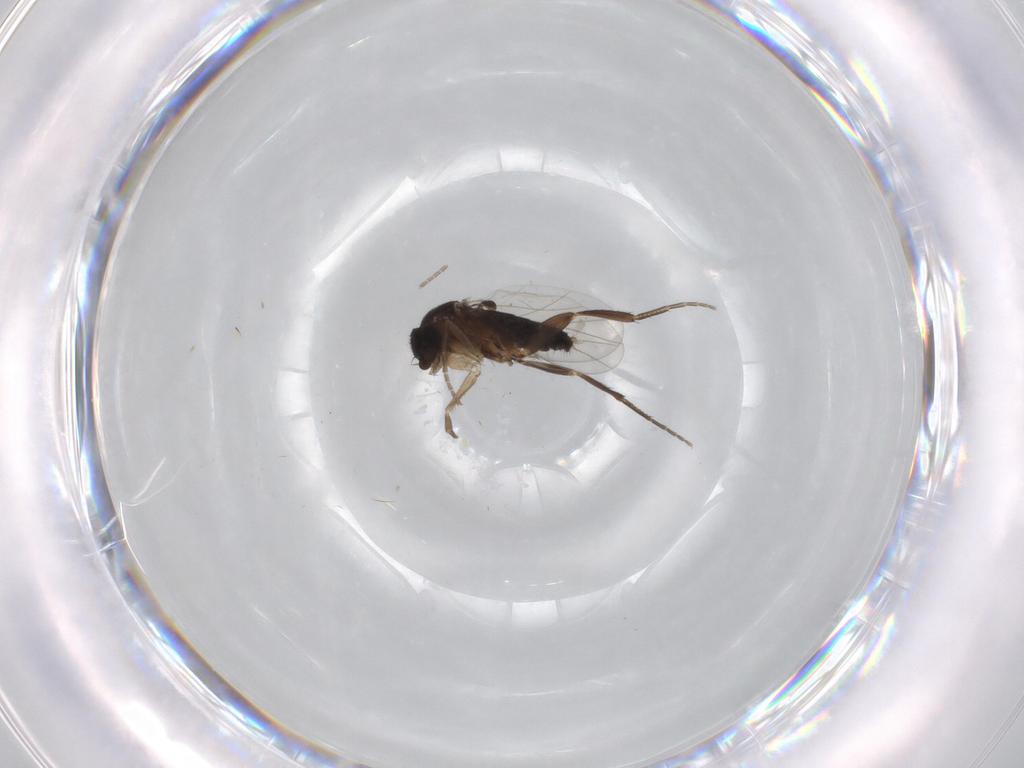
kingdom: Animalia
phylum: Arthropoda
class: Insecta
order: Diptera
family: Phoridae
